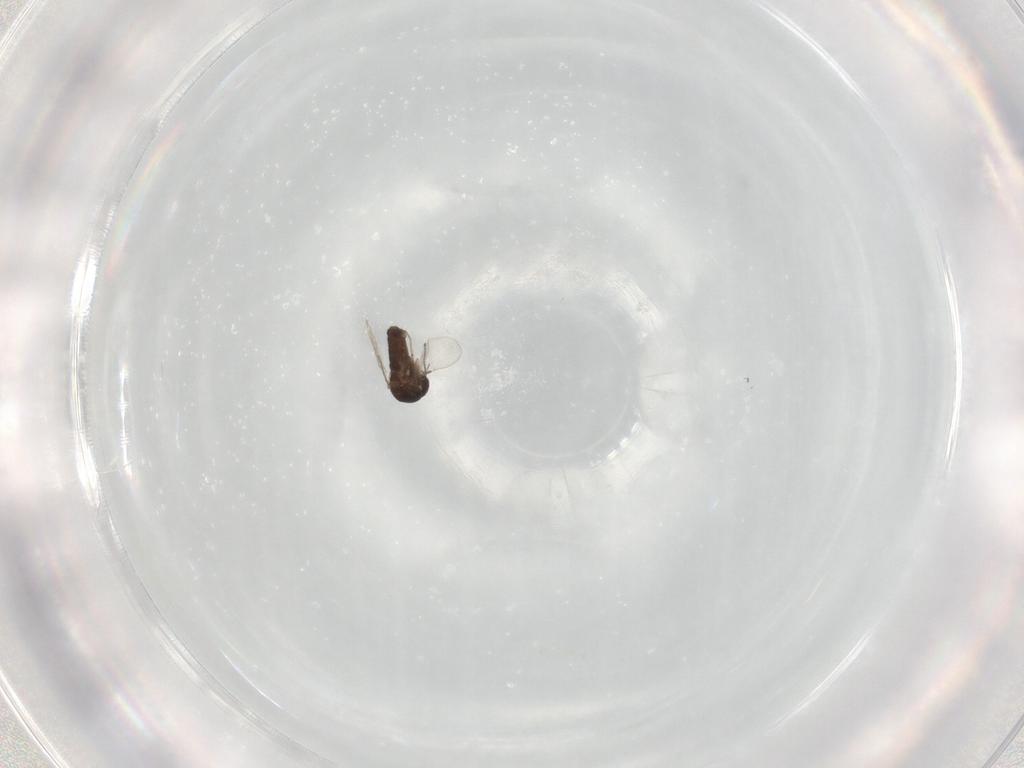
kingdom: Animalia
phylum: Arthropoda
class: Insecta
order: Diptera
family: Ceratopogonidae
